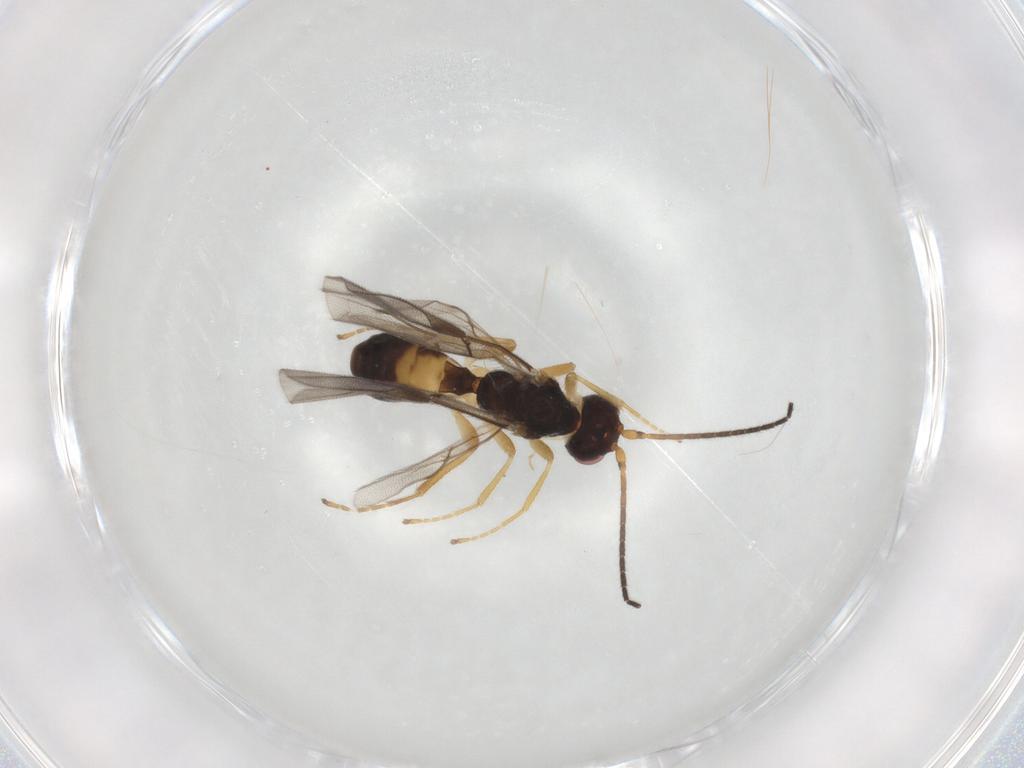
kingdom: Animalia
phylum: Arthropoda
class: Insecta
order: Hymenoptera
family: Braconidae
